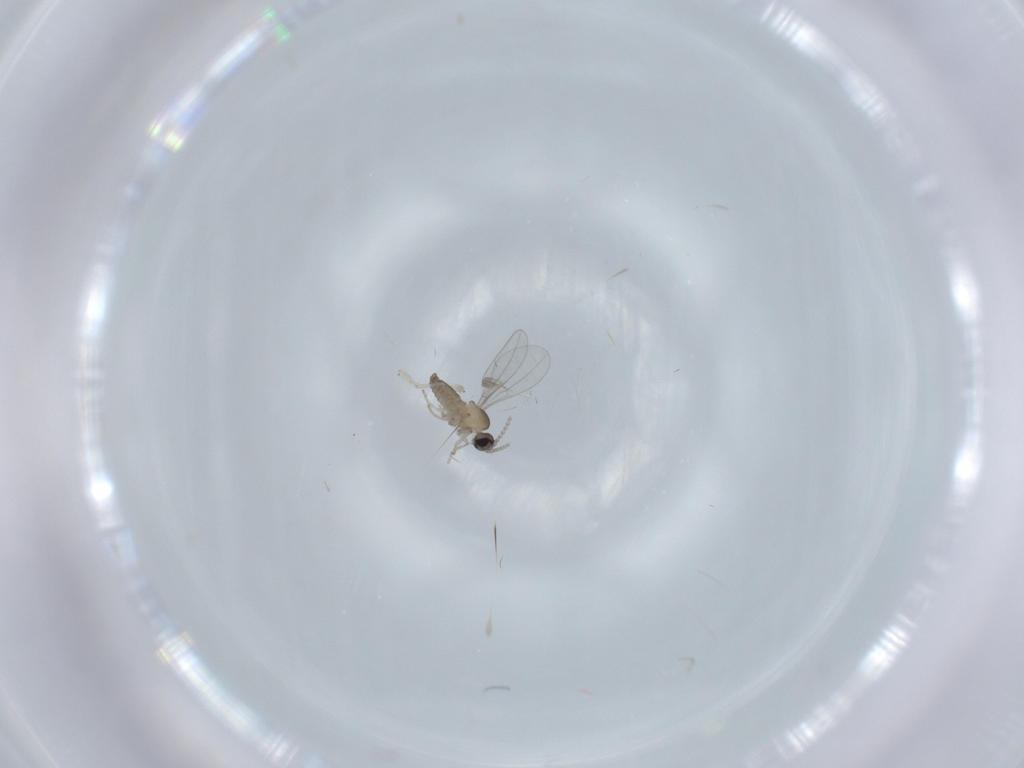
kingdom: Animalia
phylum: Arthropoda
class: Insecta
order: Diptera
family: Cecidomyiidae
